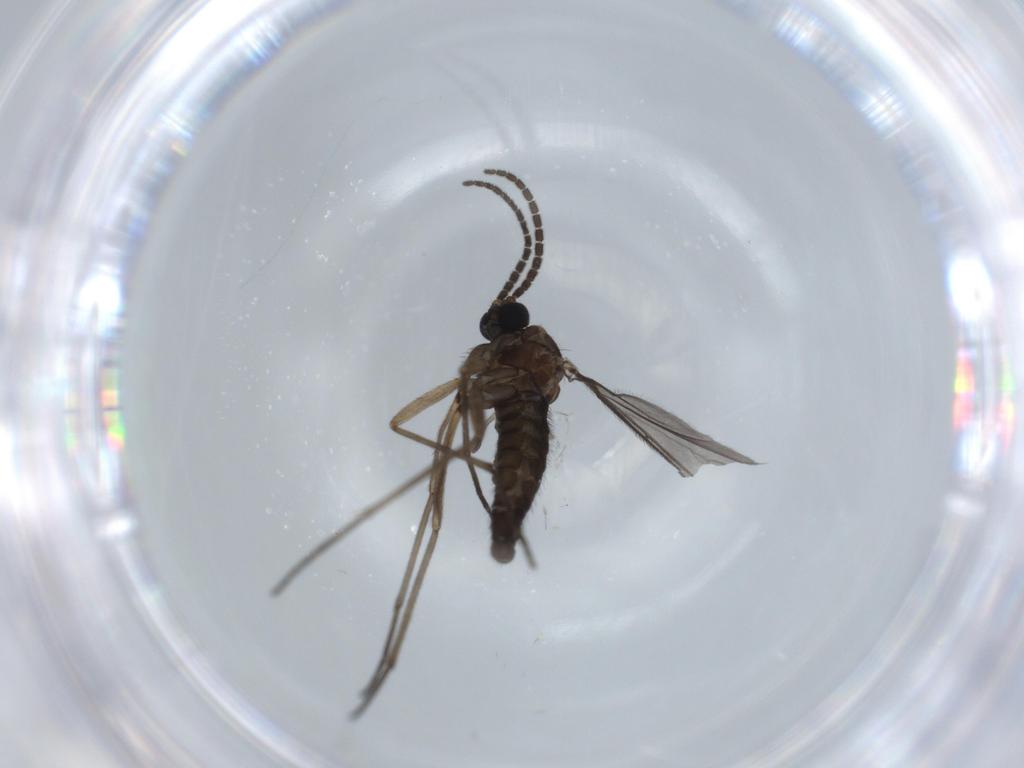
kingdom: Animalia
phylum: Arthropoda
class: Insecta
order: Diptera
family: Sciaridae
